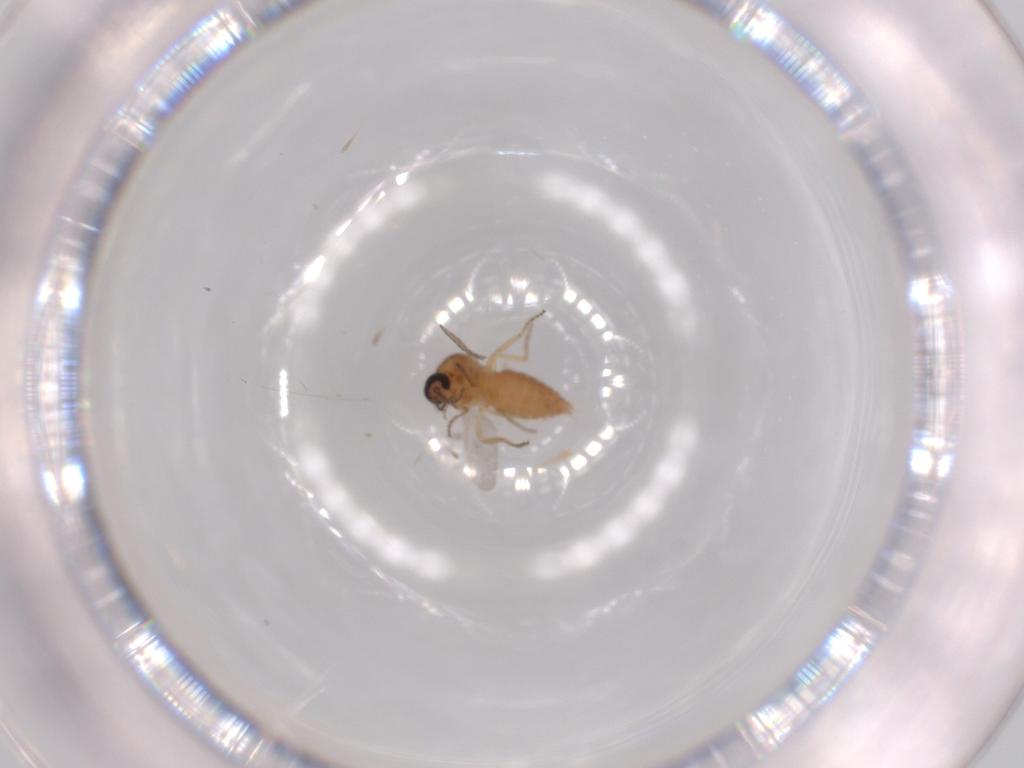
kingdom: Animalia
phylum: Arthropoda
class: Insecta
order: Diptera
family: Ceratopogonidae
